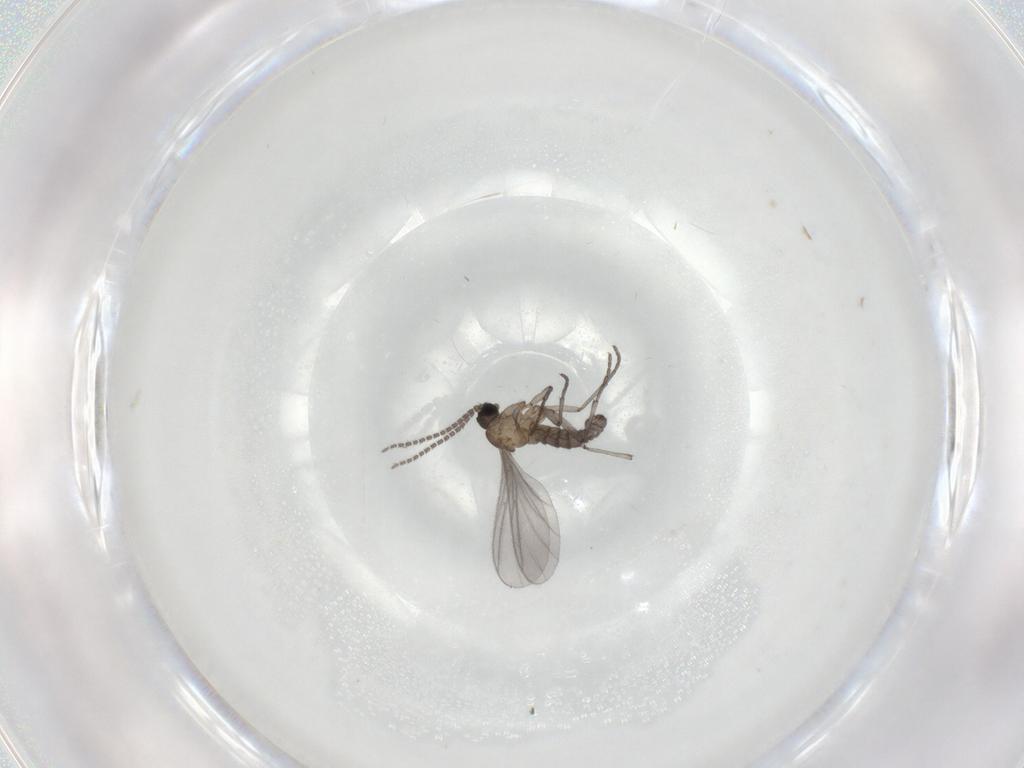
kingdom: Animalia
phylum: Arthropoda
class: Insecta
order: Diptera
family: Sciaridae
